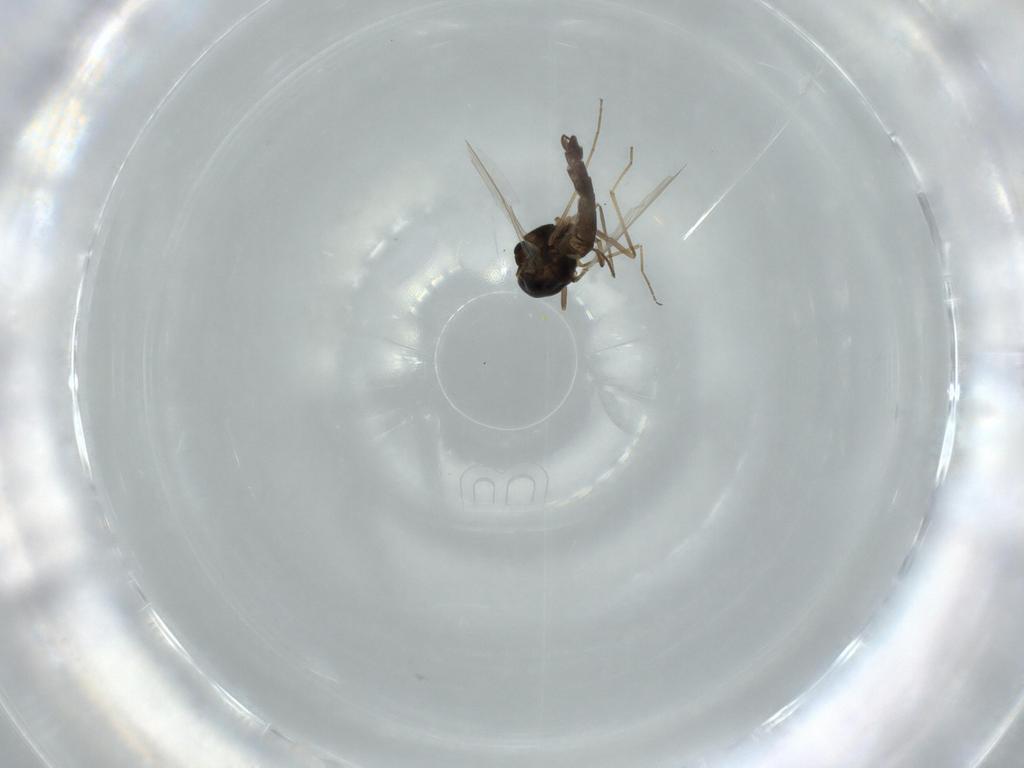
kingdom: Animalia
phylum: Arthropoda
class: Insecta
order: Diptera
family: Chironomidae
